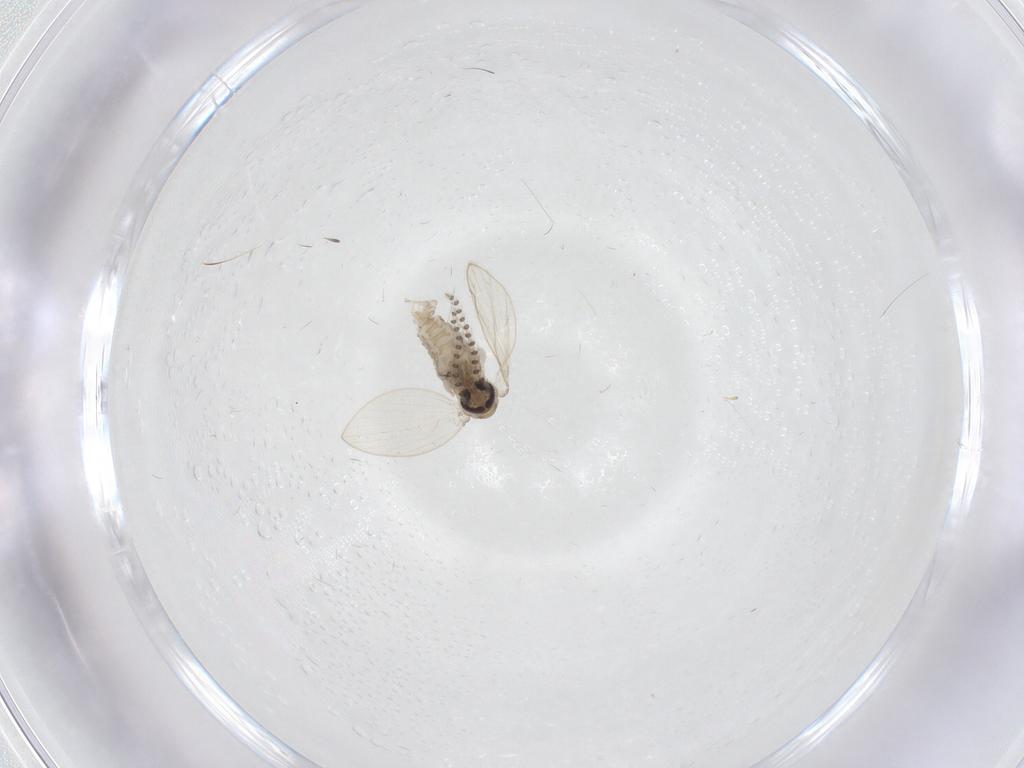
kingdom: Animalia
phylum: Arthropoda
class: Insecta
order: Diptera
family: Psychodidae
